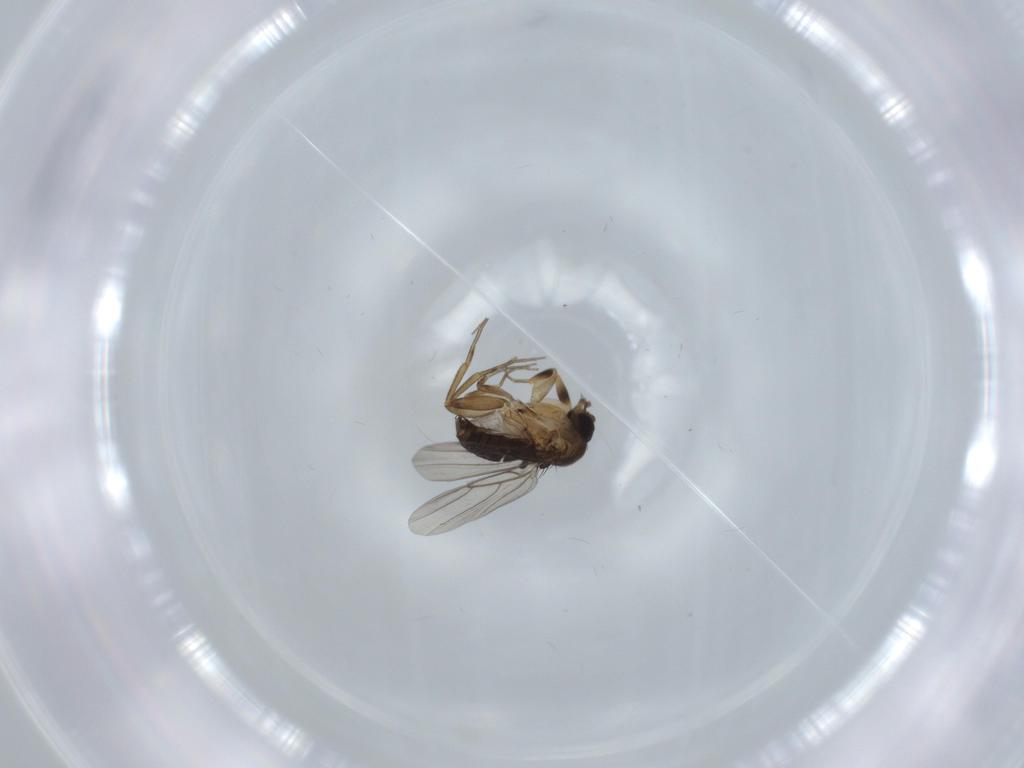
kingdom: Animalia
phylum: Arthropoda
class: Insecta
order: Diptera
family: Phoridae
